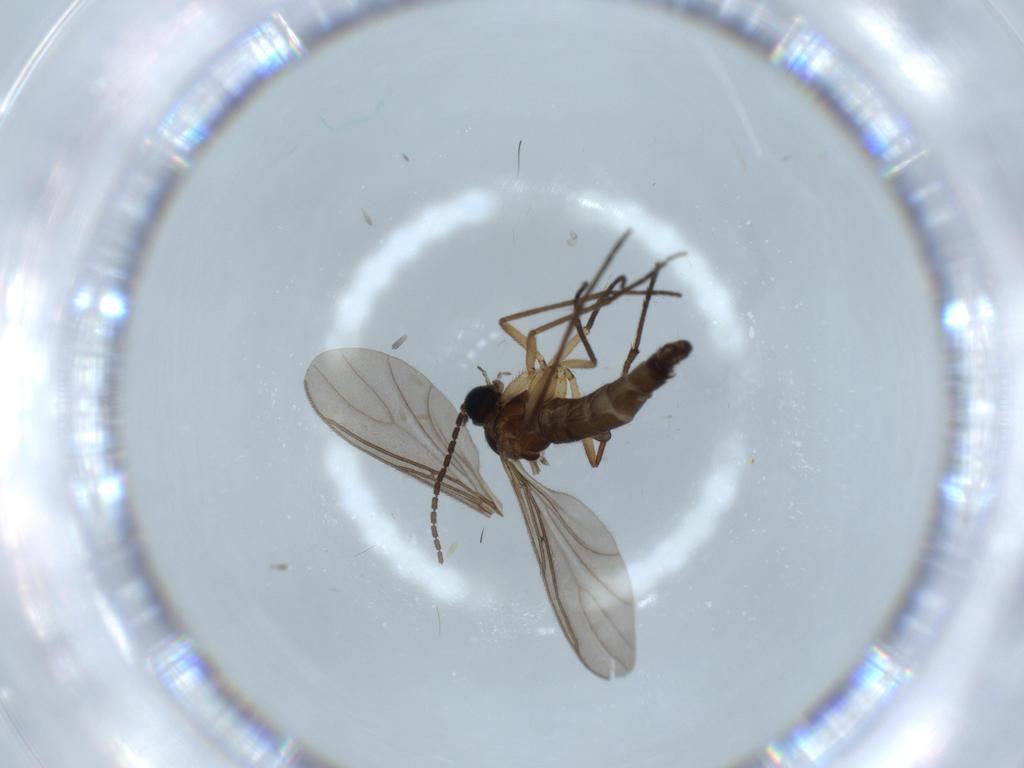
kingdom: Animalia
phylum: Arthropoda
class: Insecta
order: Diptera
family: Sciaridae
